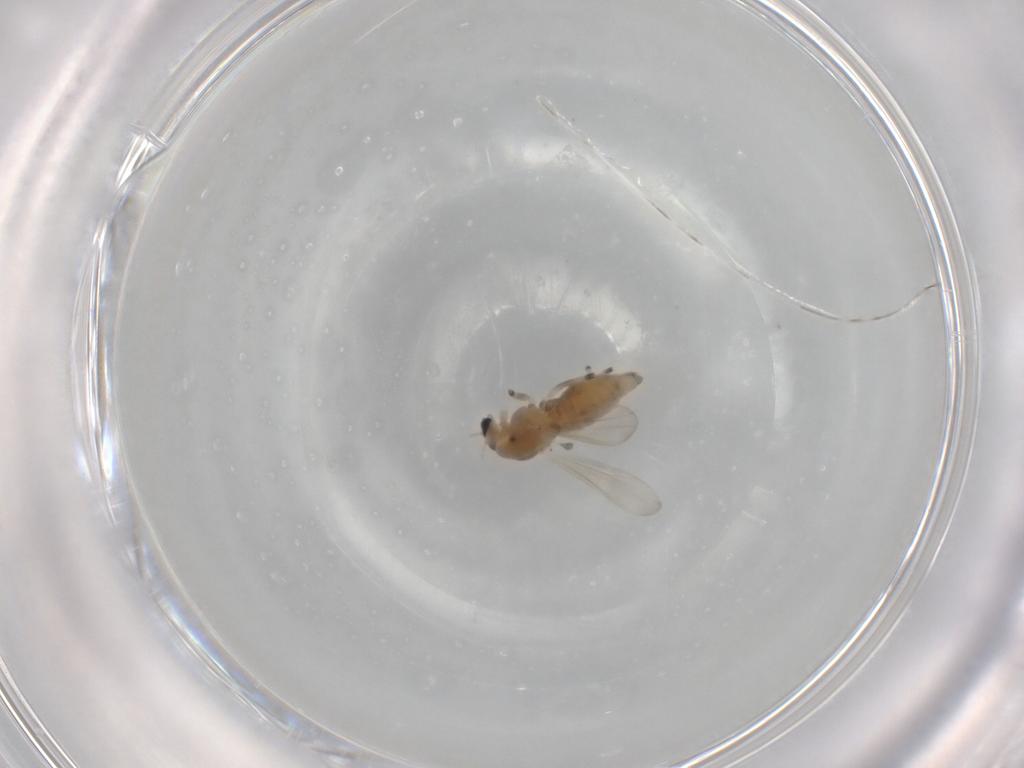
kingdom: Animalia
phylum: Arthropoda
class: Insecta
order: Diptera
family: Chironomidae
